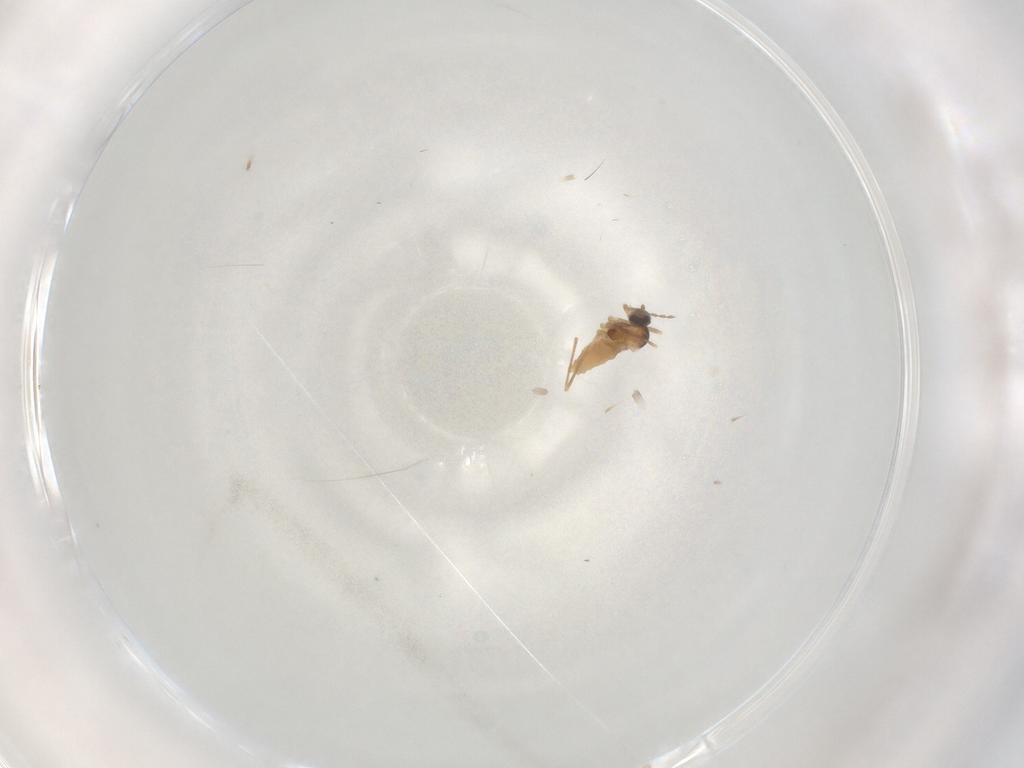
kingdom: Animalia
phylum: Arthropoda
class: Insecta
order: Diptera
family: Cecidomyiidae
